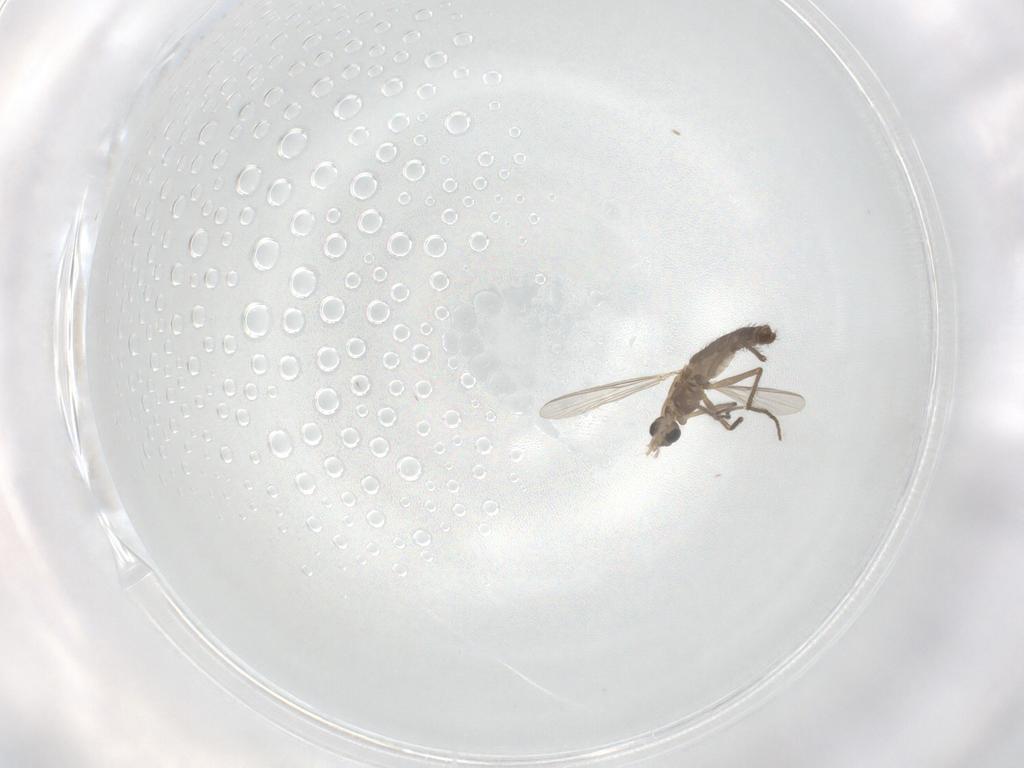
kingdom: Animalia
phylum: Arthropoda
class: Insecta
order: Diptera
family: Chironomidae
